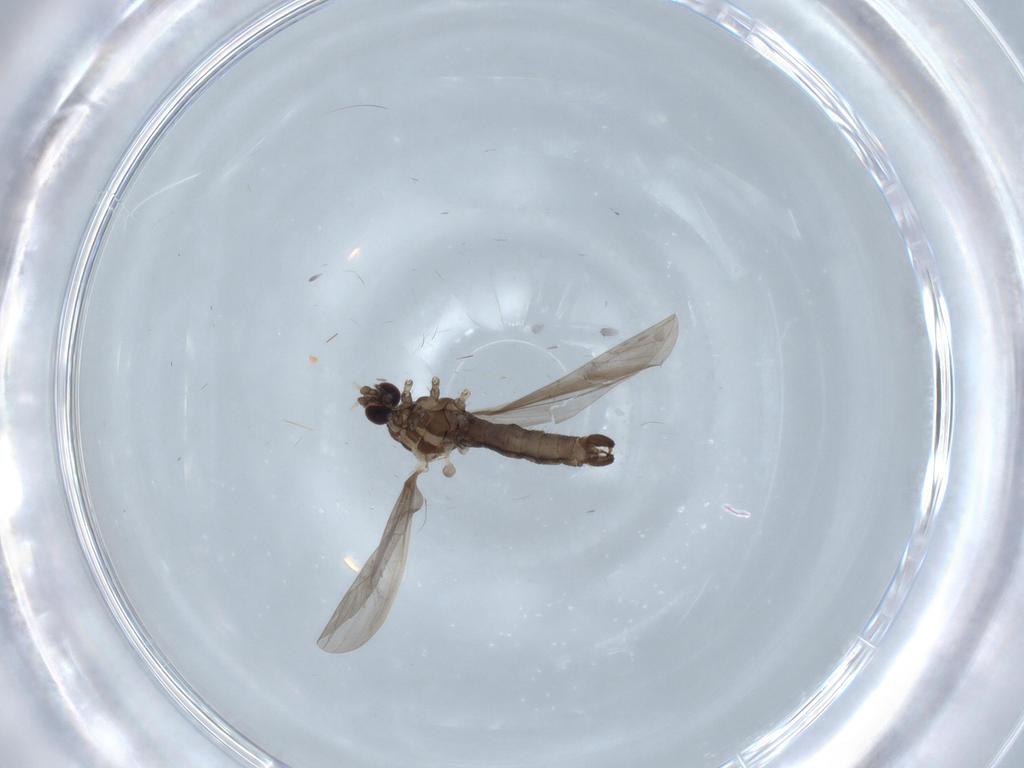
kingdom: Animalia
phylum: Arthropoda
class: Insecta
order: Diptera
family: Limoniidae
